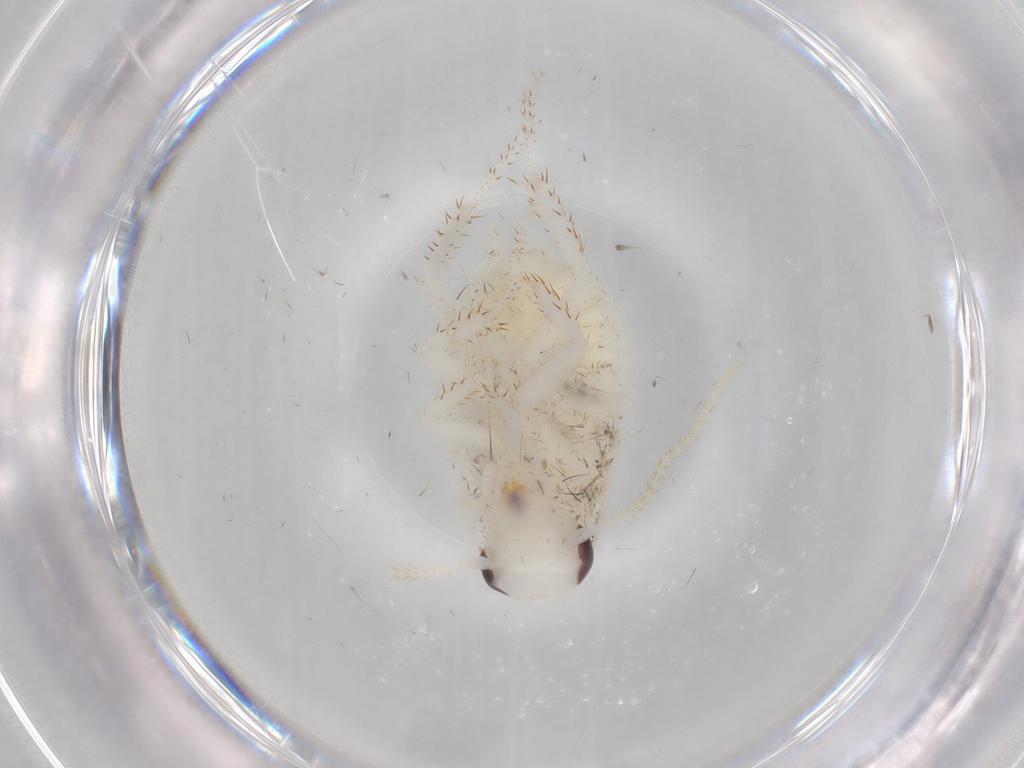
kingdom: Animalia
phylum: Arthropoda
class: Insecta
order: Blattodea
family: Epilampridae
